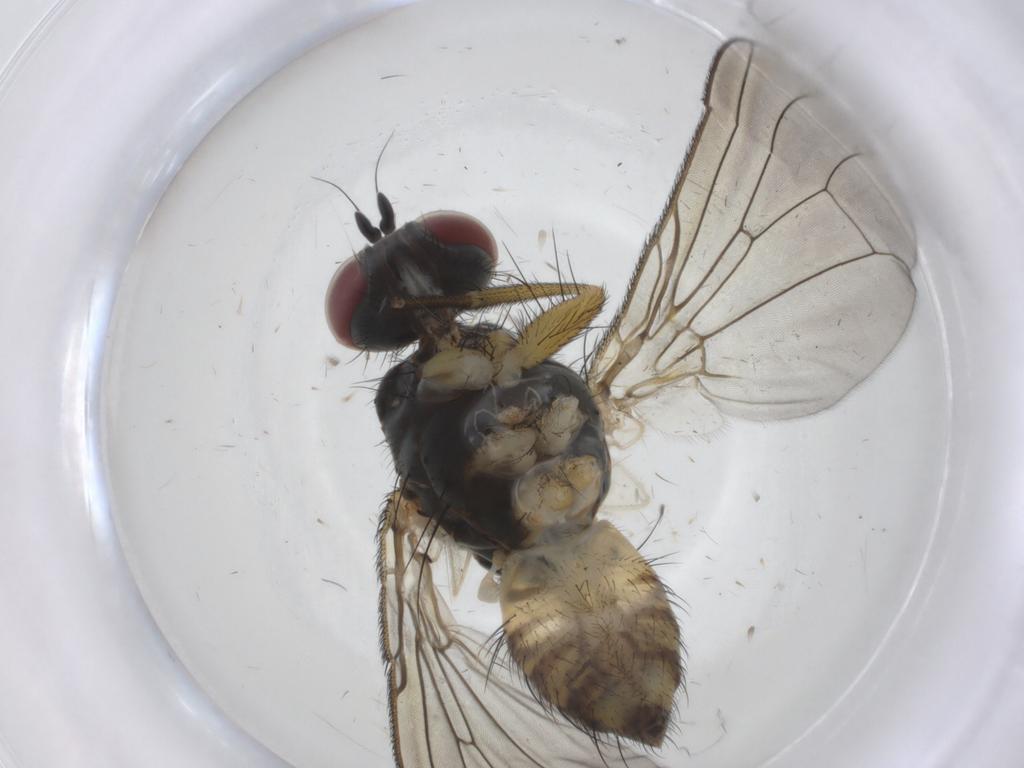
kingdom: Animalia
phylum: Arthropoda
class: Insecta
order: Diptera
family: Muscidae
